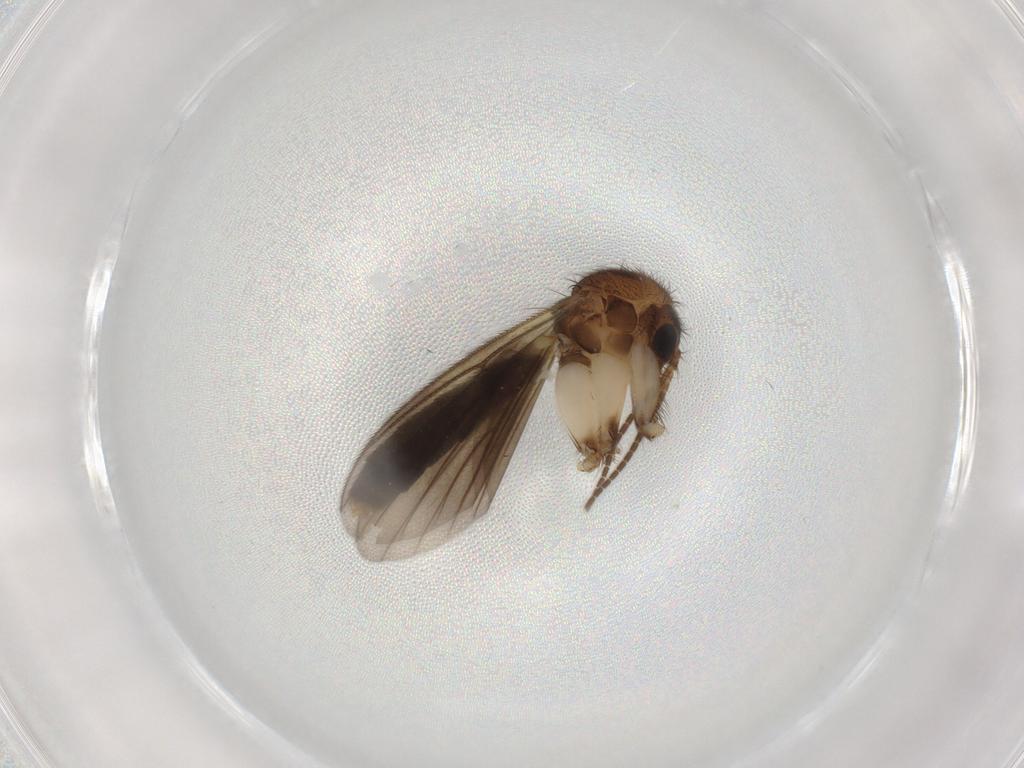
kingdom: Animalia
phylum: Arthropoda
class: Insecta
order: Diptera
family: Mycetophilidae
